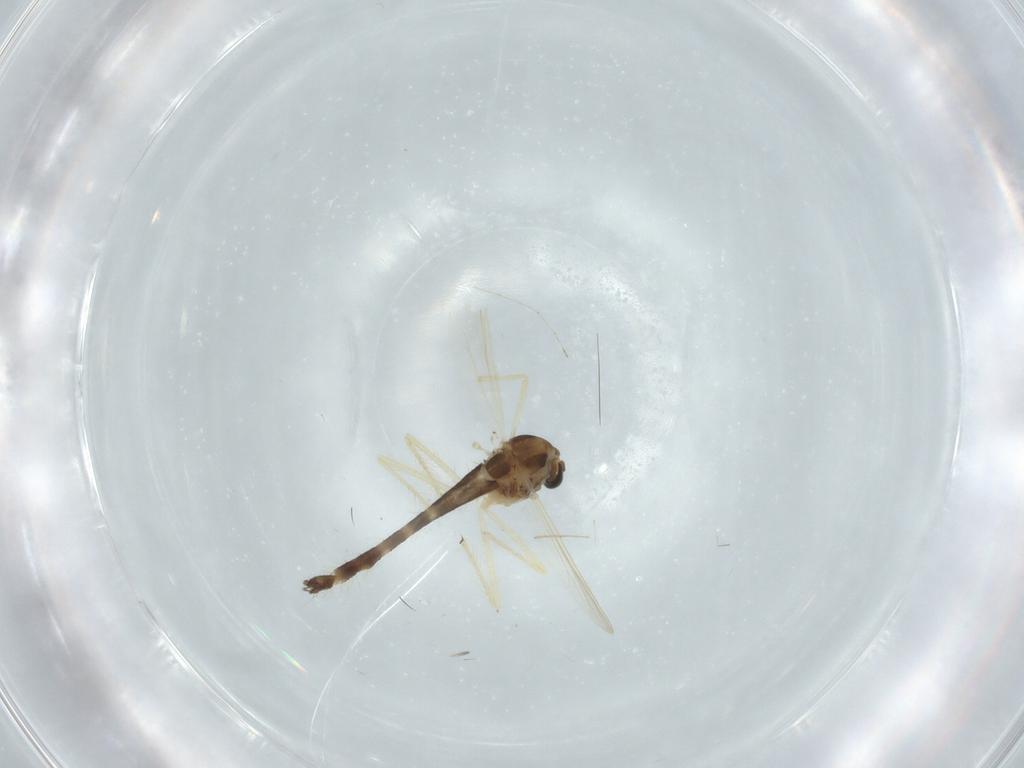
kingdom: Animalia
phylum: Arthropoda
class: Insecta
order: Diptera
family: Chironomidae
